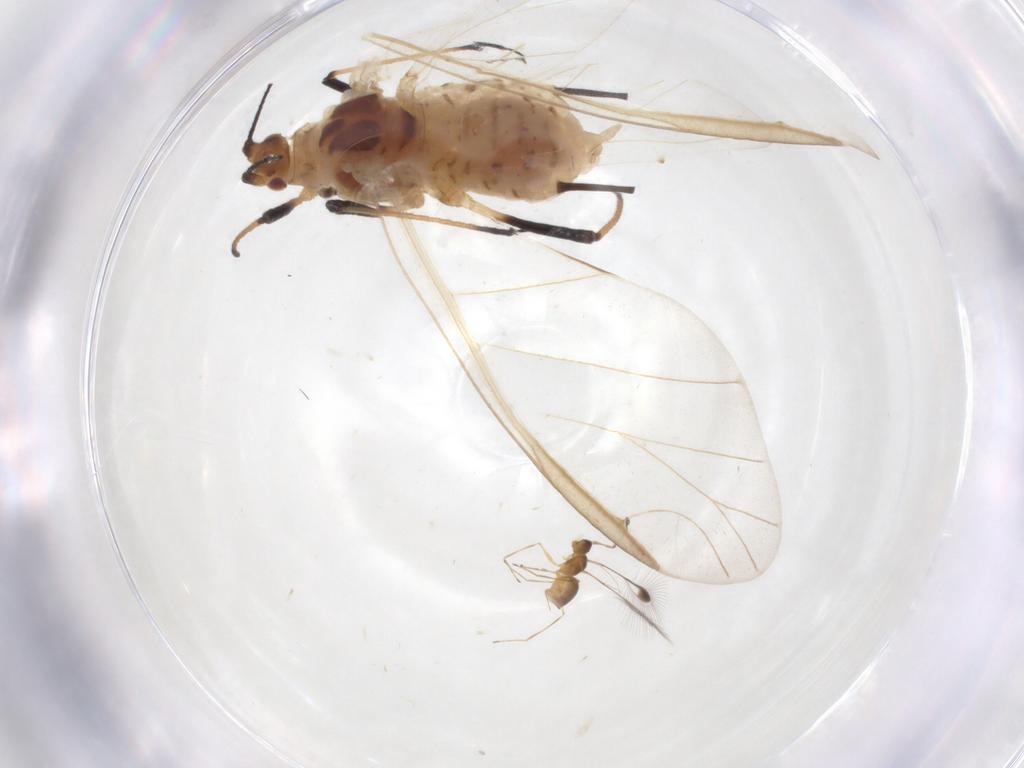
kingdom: Animalia
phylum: Arthropoda
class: Insecta
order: Hemiptera
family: Aphididae
